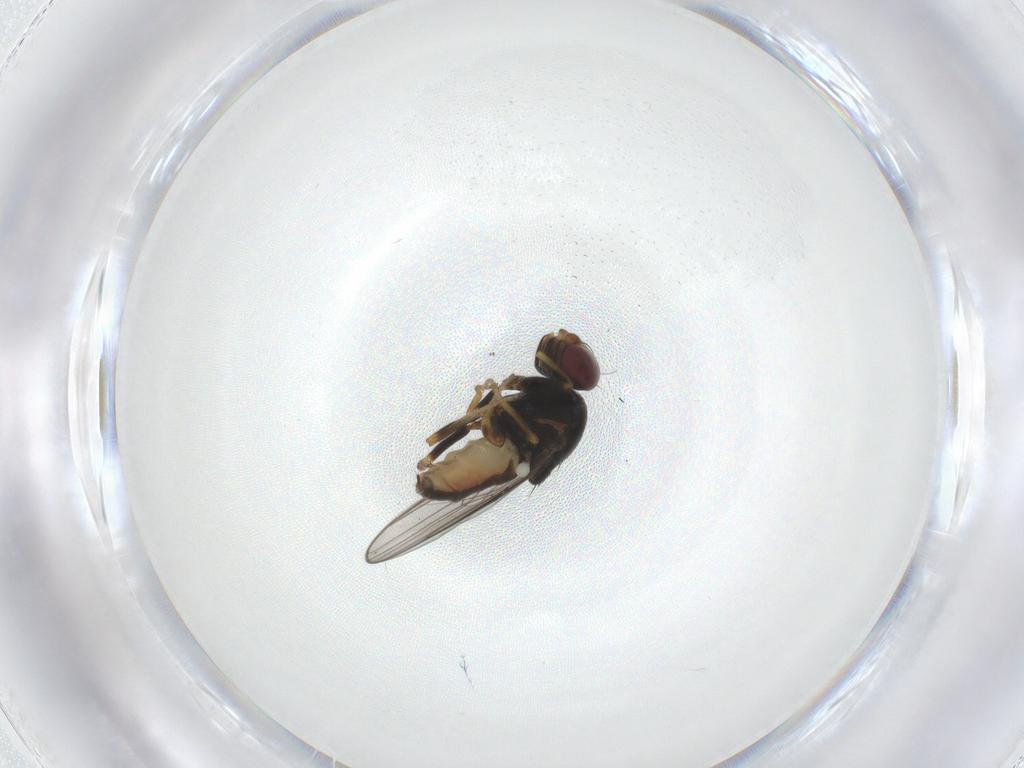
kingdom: Animalia
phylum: Arthropoda
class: Insecta
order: Diptera
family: Chloropidae
